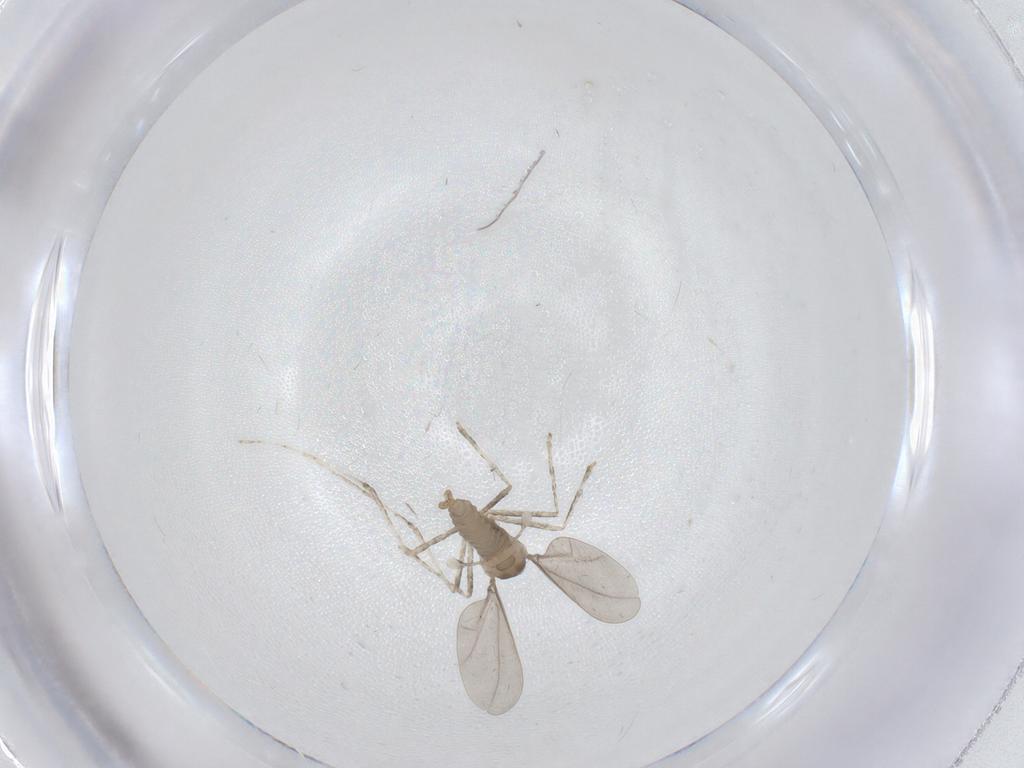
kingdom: Animalia
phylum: Arthropoda
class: Insecta
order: Diptera
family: Cecidomyiidae
